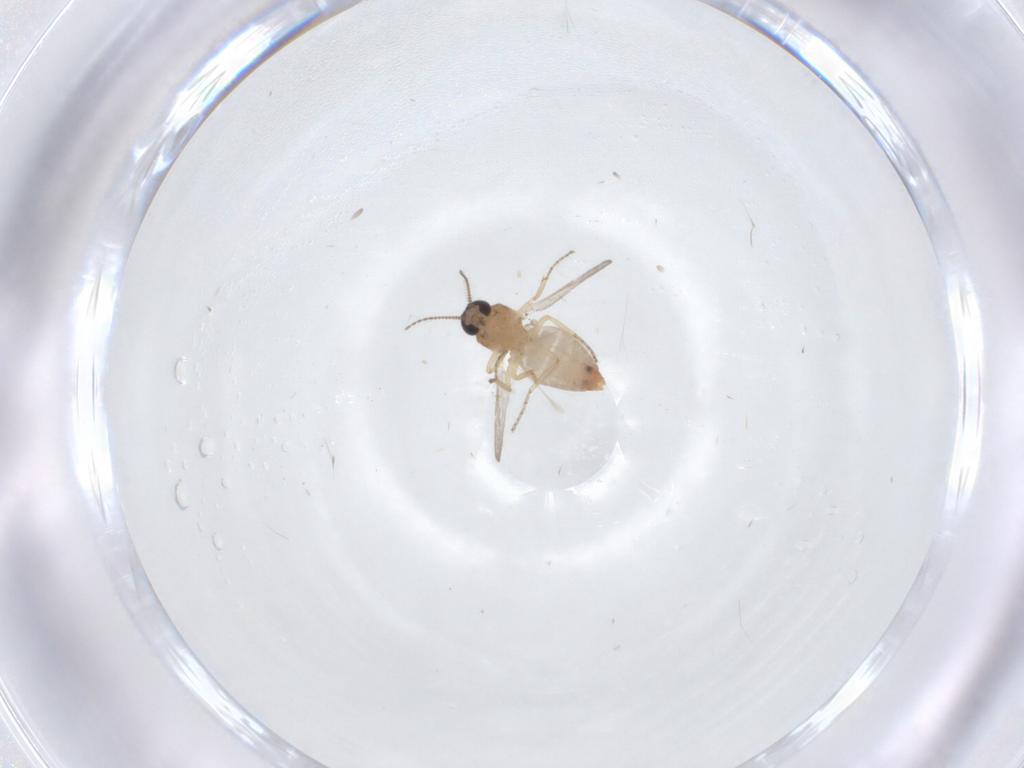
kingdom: Animalia
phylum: Arthropoda
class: Insecta
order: Diptera
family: Ceratopogonidae
